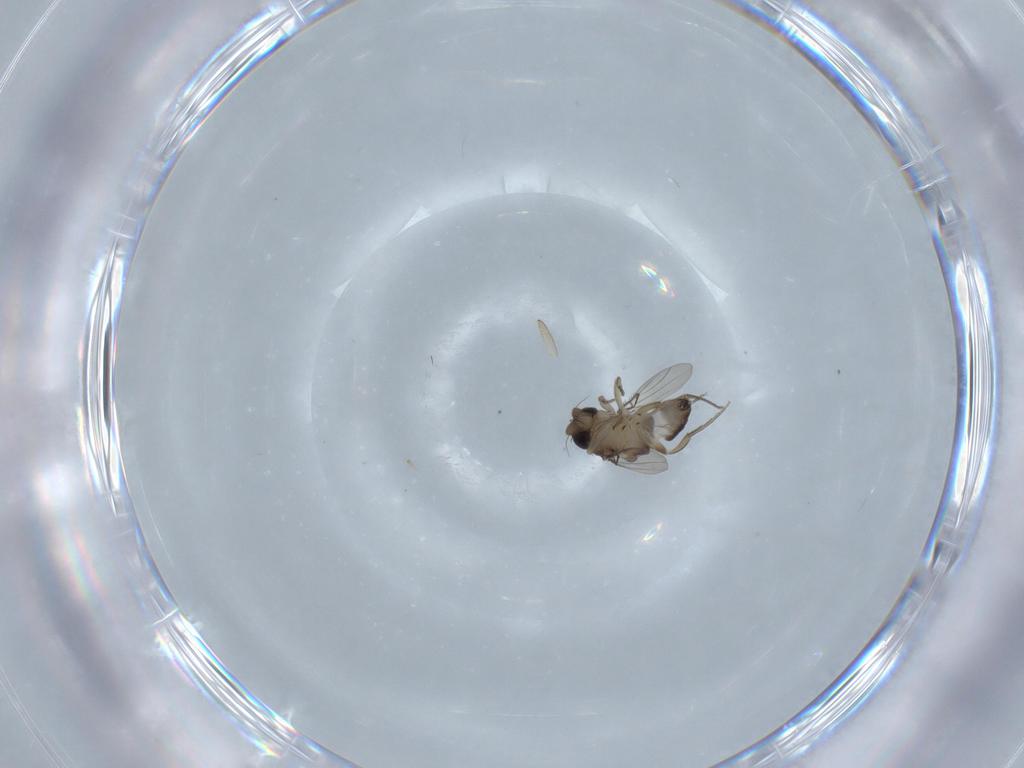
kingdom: Animalia
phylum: Arthropoda
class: Insecta
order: Diptera
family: Phoridae
